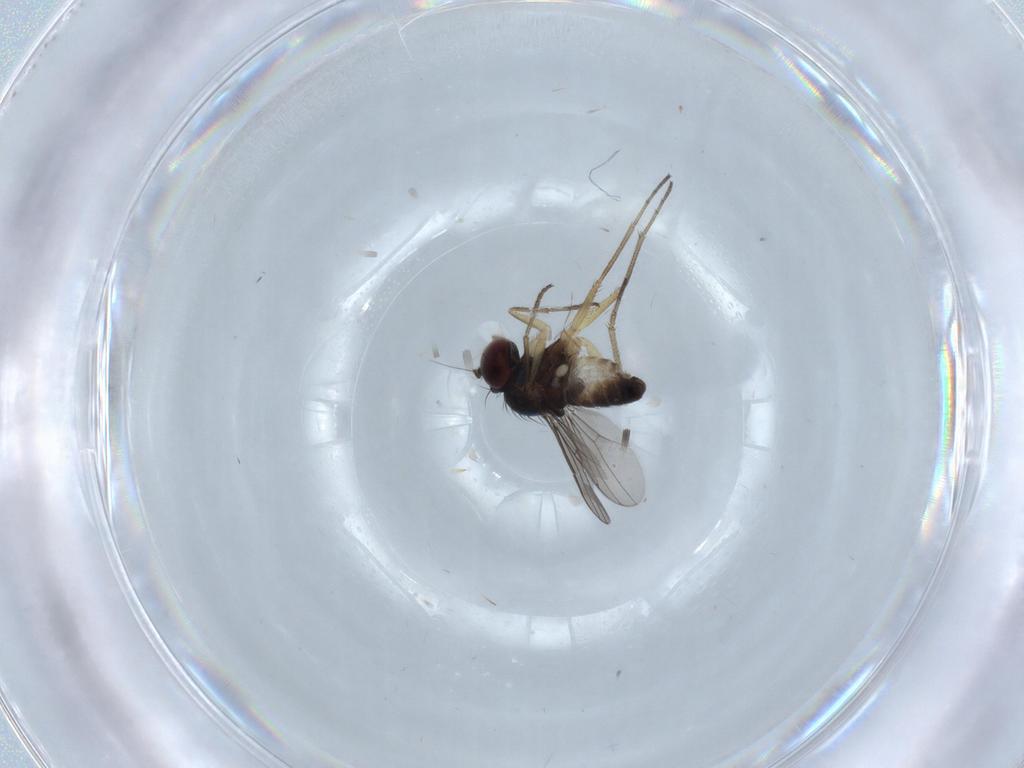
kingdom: Animalia
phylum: Arthropoda
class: Insecta
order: Diptera
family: Dolichopodidae
